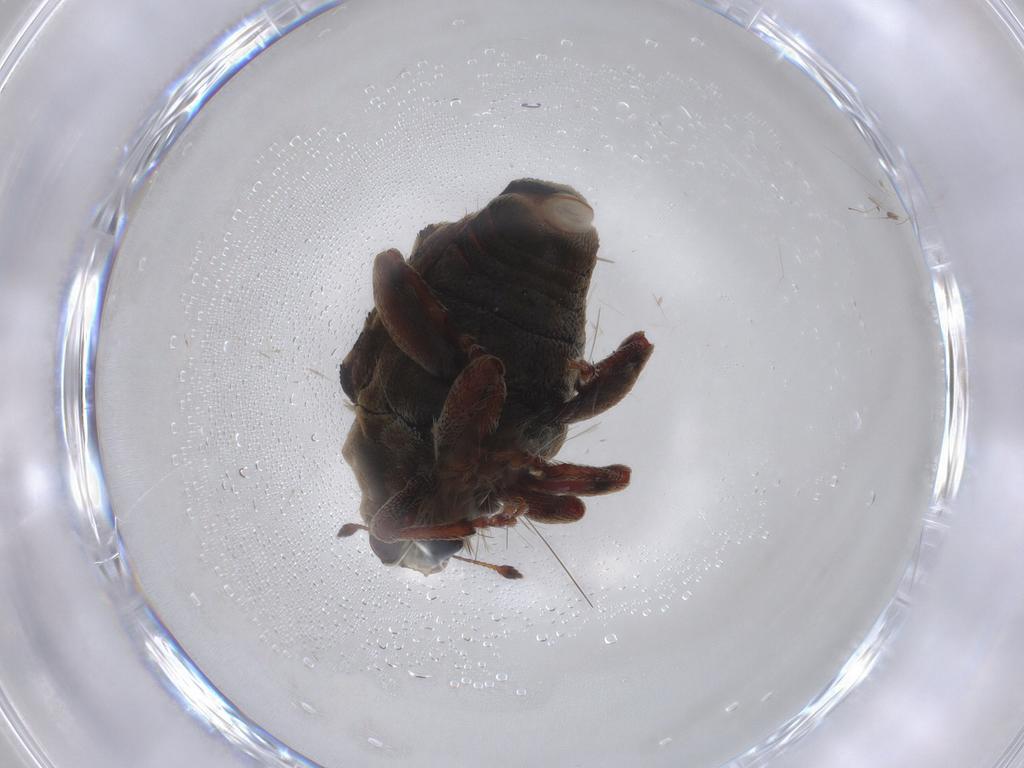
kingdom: Animalia
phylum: Arthropoda
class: Insecta
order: Coleoptera
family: Curculionidae
